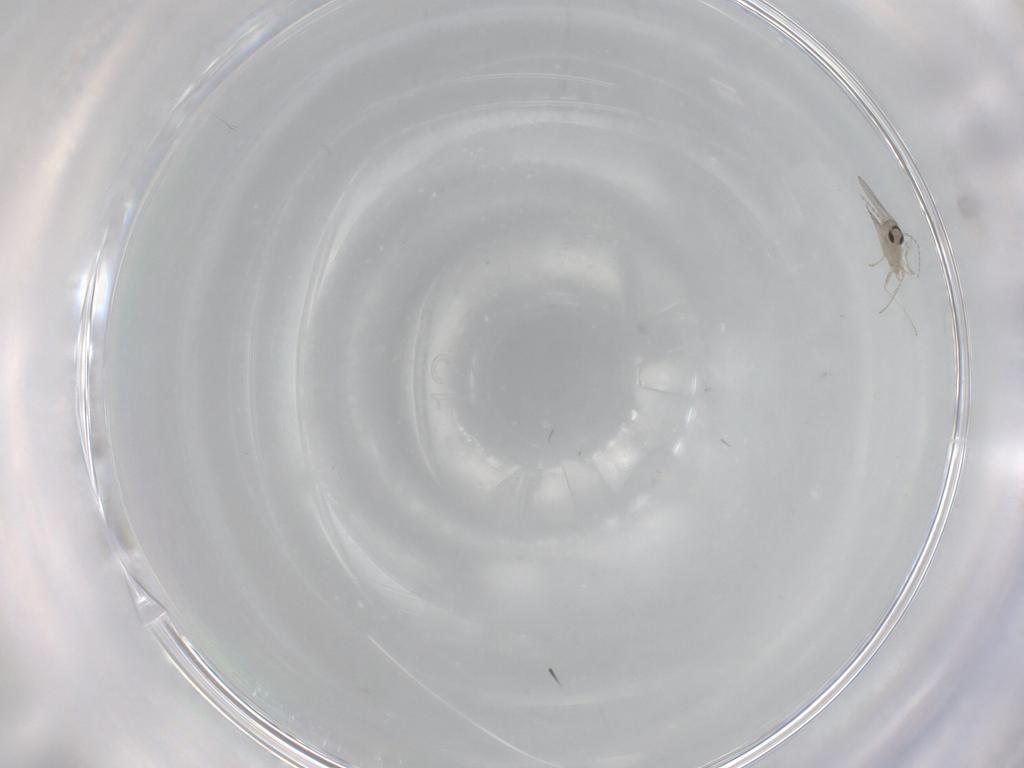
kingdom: Animalia
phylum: Arthropoda
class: Insecta
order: Diptera
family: Cecidomyiidae
